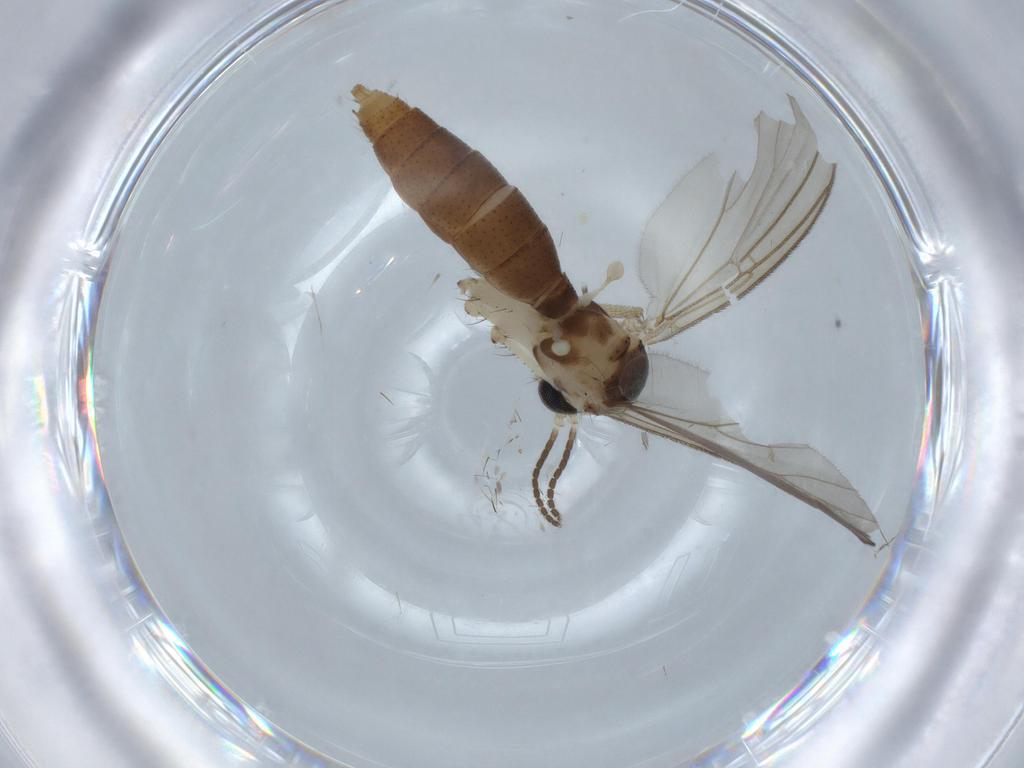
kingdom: Animalia
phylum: Arthropoda
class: Insecta
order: Diptera
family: Mycetophilidae
